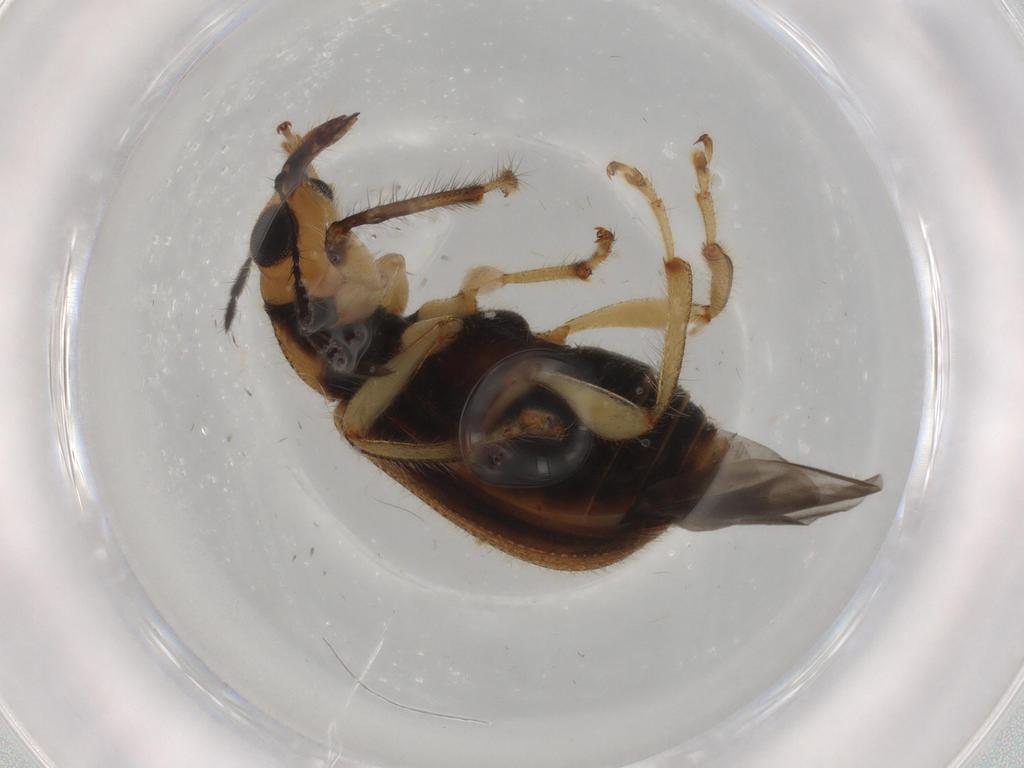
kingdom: Animalia
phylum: Arthropoda
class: Insecta
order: Coleoptera
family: Attelabidae
